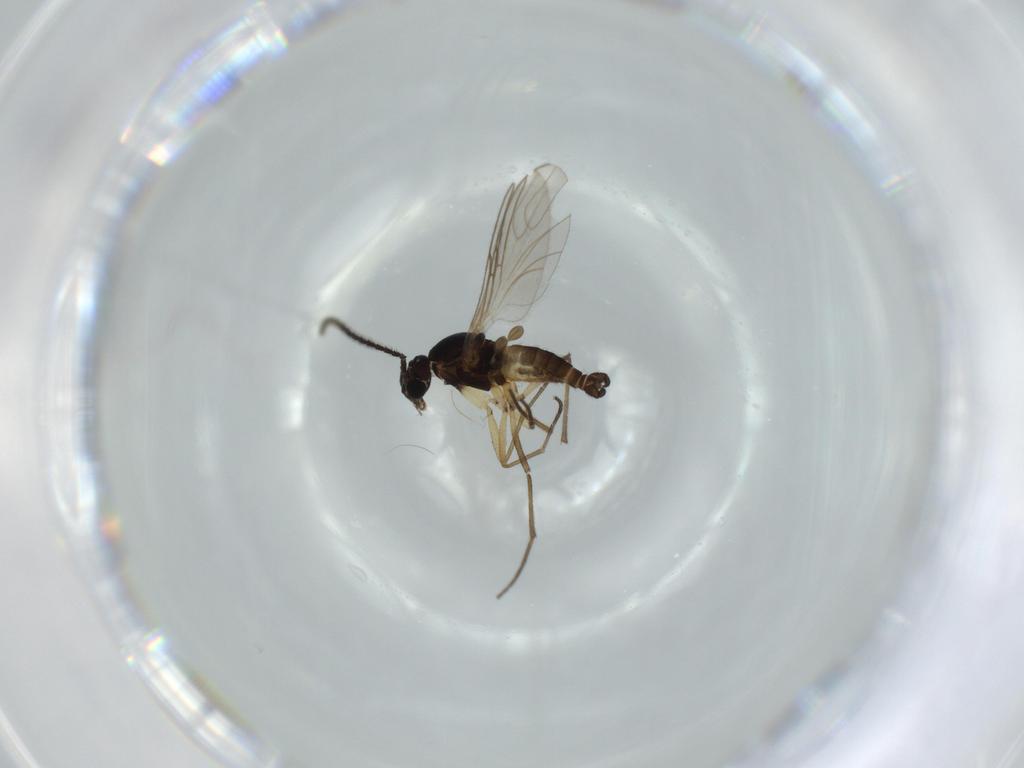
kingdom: Animalia
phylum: Arthropoda
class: Insecta
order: Diptera
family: Sciaridae
